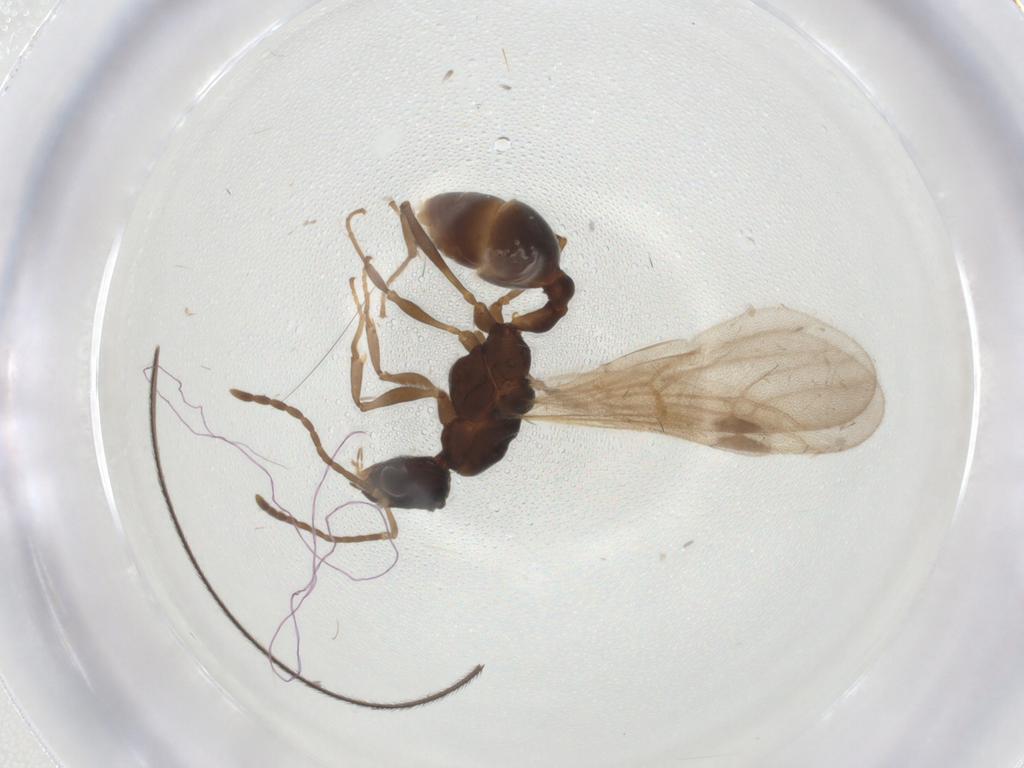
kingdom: Animalia
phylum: Arthropoda
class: Insecta
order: Hymenoptera
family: Ichneumonidae
